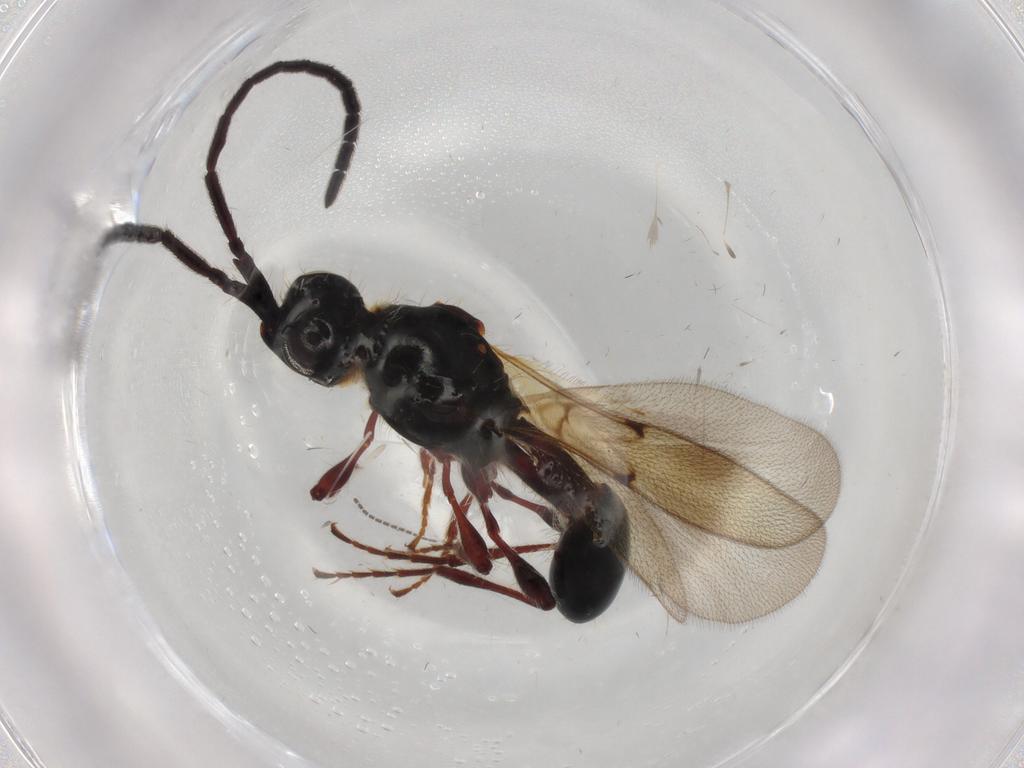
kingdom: Animalia
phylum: Arthropoda
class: Insecta
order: Hymenoptera
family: Diapriidae
